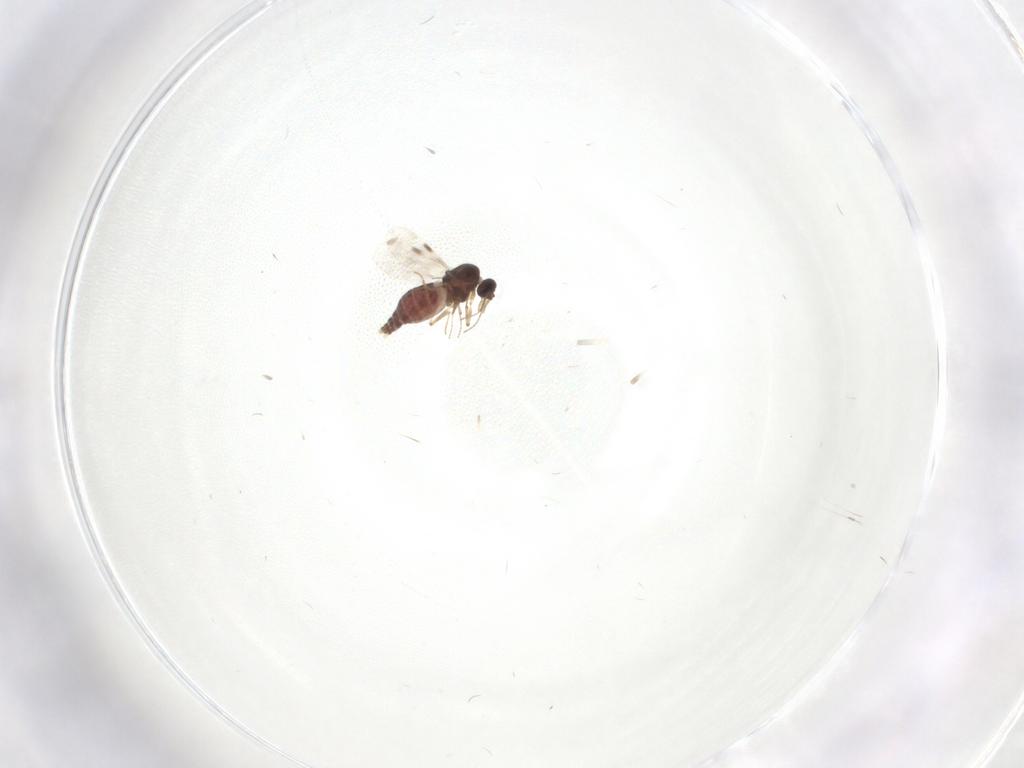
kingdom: Animalia
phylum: Arthropoda
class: Insecta
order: Diptera
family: Chironomidae
